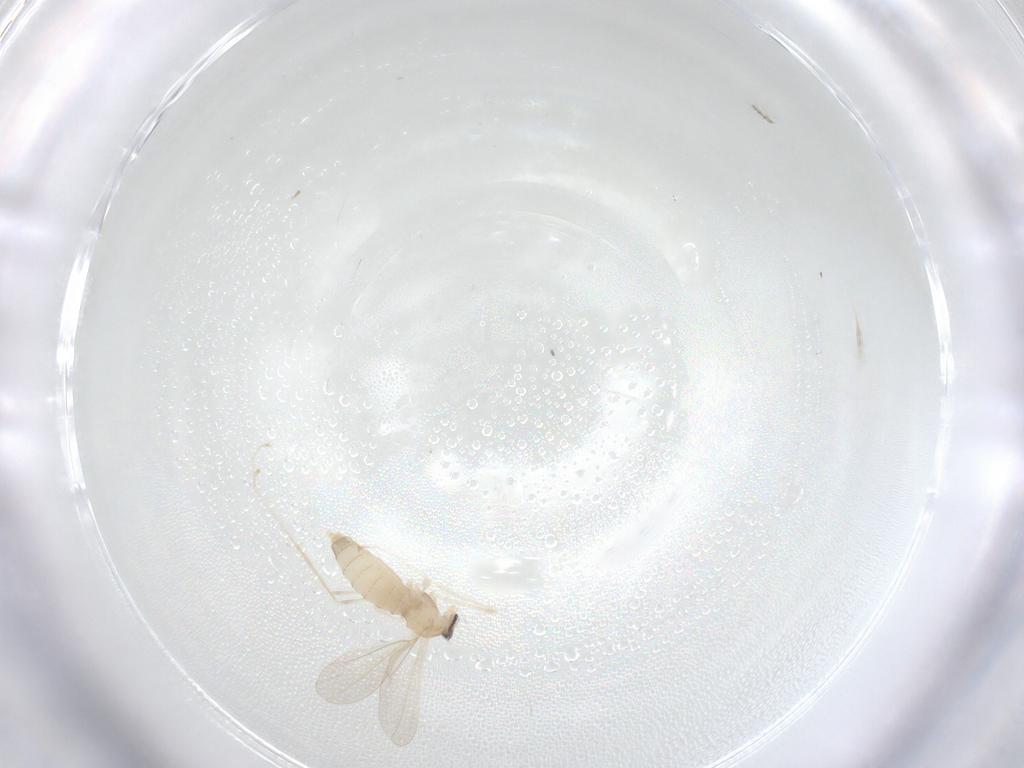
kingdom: Animalia
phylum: Arthropoda
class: Insecta
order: Diptera
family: Cecidomyiidae
